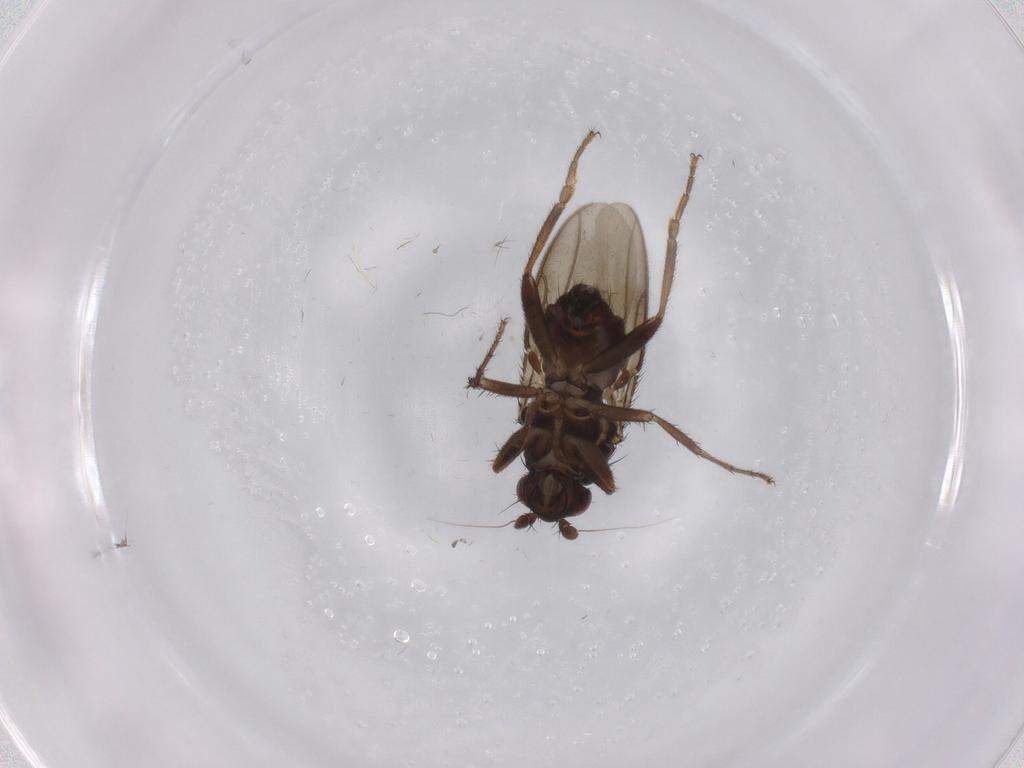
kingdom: Animalia
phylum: Arthropoda
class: Insecta
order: Diptera
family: Sphaeroceridae
